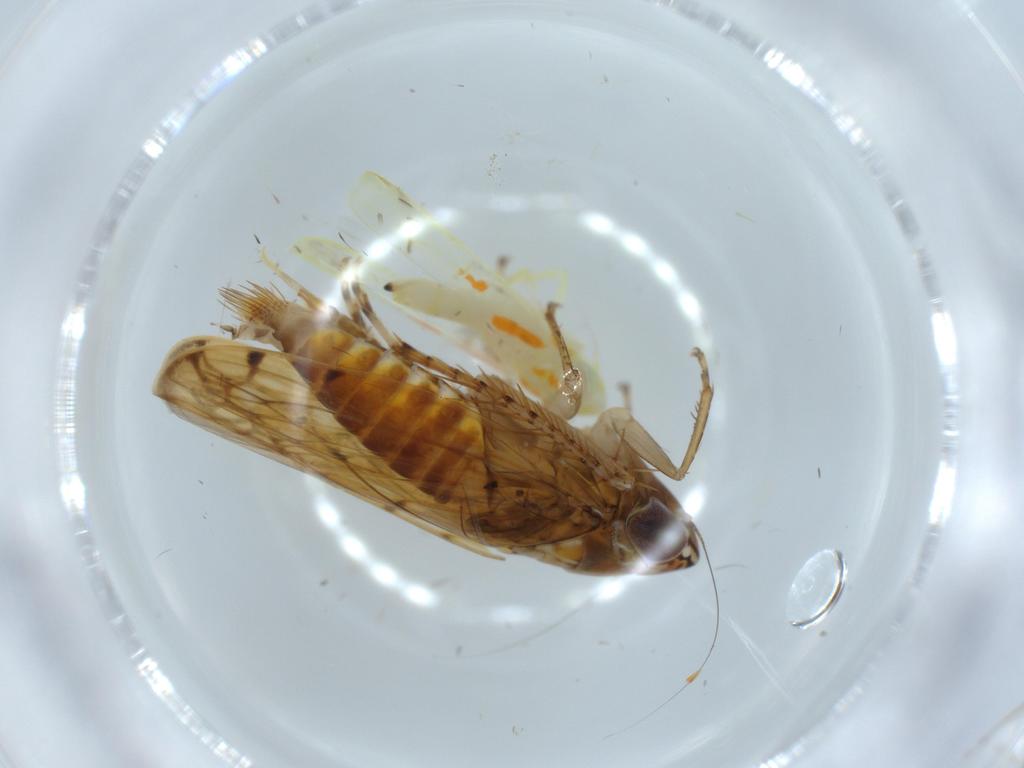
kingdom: Animalia
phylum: Arthropoda
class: Insecta
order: Hemiptera
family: Cicadellidae
